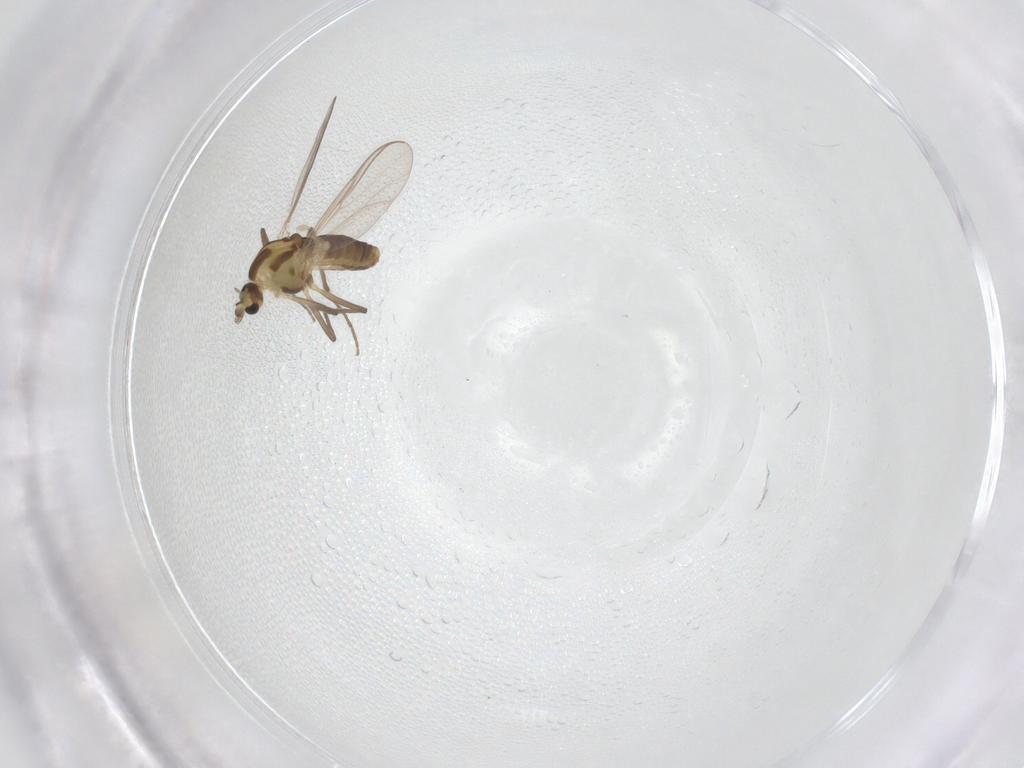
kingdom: Animalia
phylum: Arthropoda
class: Insecta
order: Diptera
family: Chironomidae
